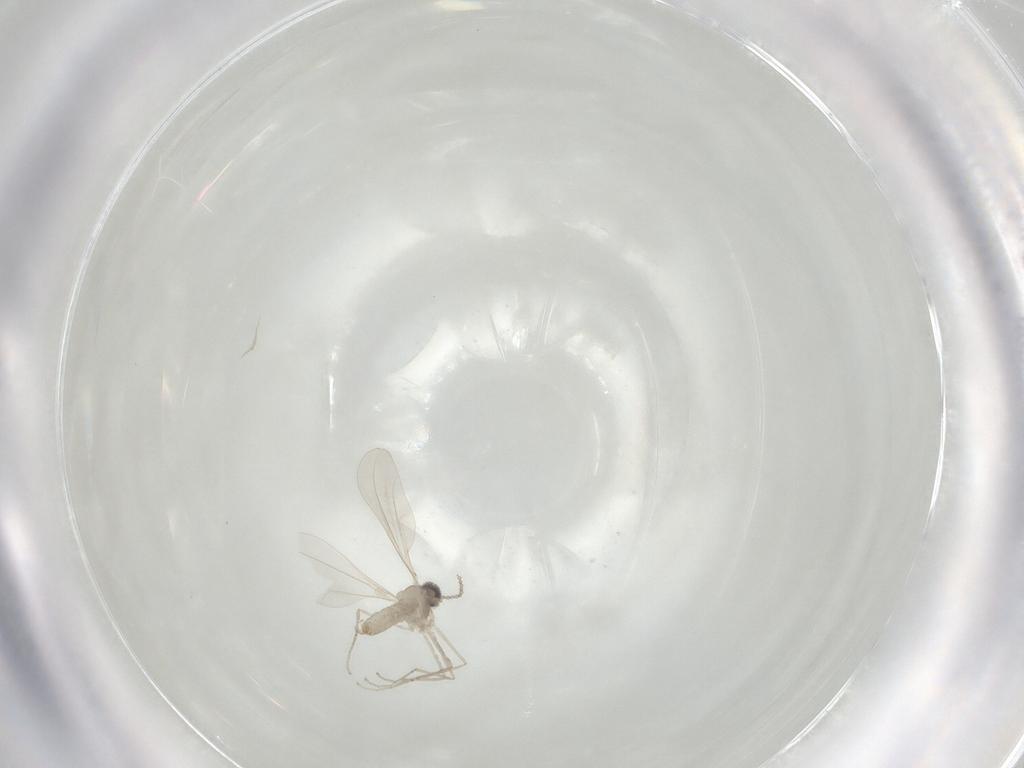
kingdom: Animalia
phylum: Arthropoda
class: Insecta
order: Diptera
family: Cecidomyiidae
